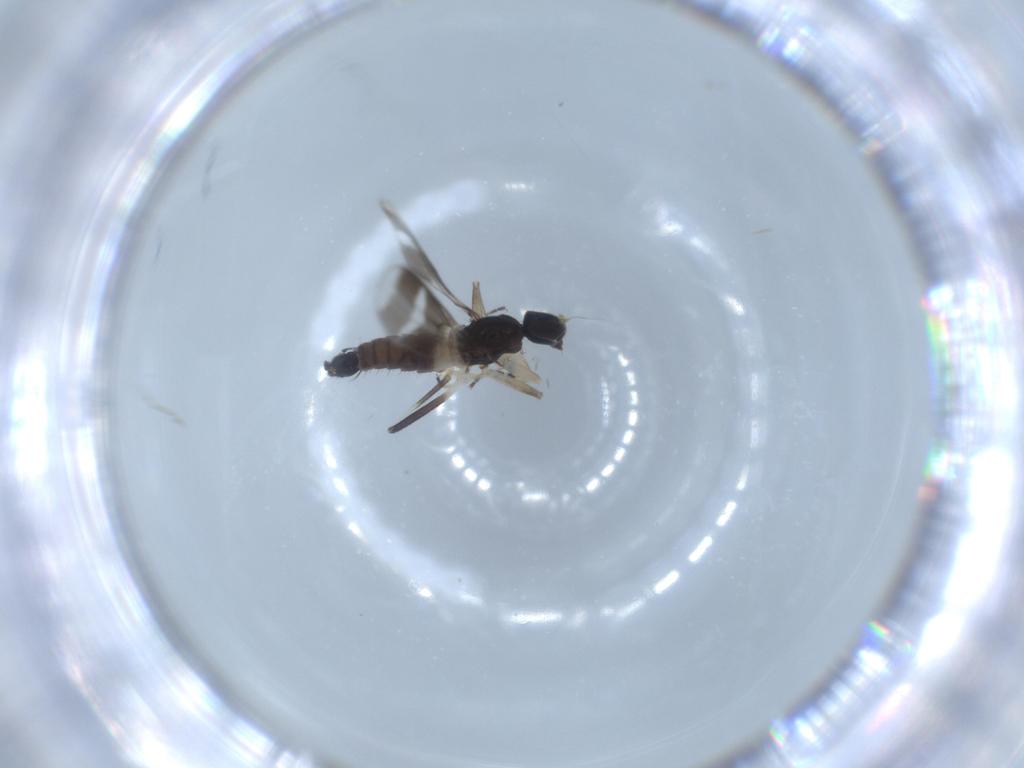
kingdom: Animalia
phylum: Arthropoda
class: Insecta
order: Diptera
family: Hybotidae
